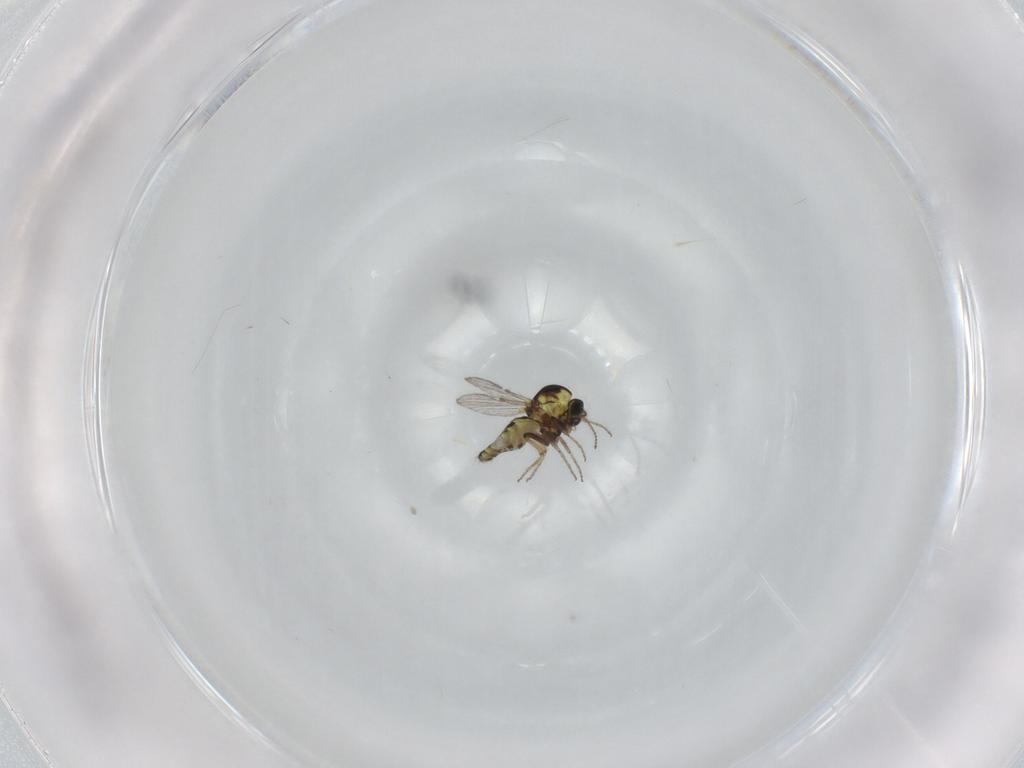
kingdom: Animalia
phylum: Arthropoda
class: Insecta
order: Diptera
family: Ceratopogonidae
